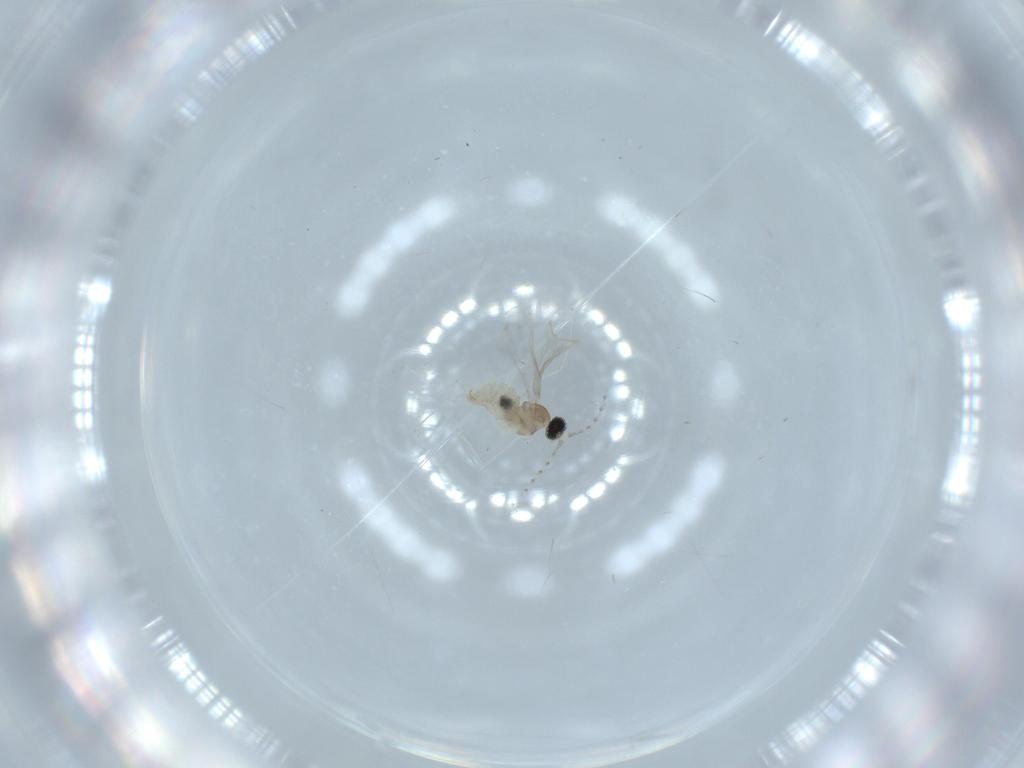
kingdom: Animalia
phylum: Arthropoda
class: Insecta
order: Diptera
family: Cecidomyiidae
